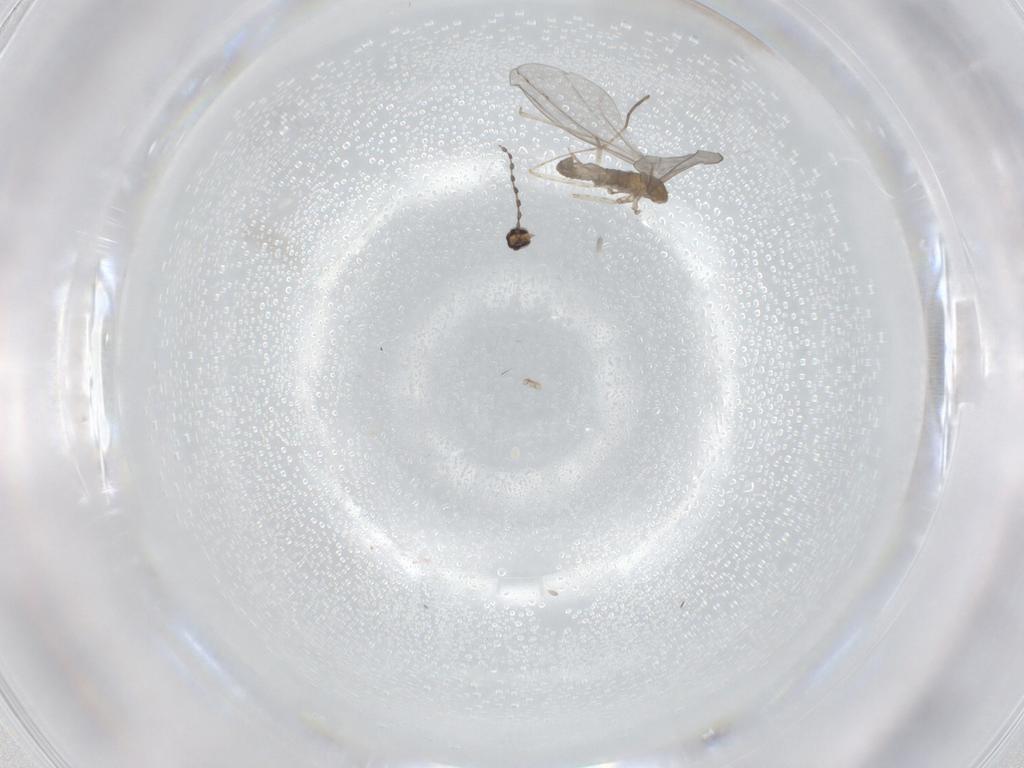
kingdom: Animalia
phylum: Arthropoda
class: Insecta
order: Diptera
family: Cecidomyiidae
